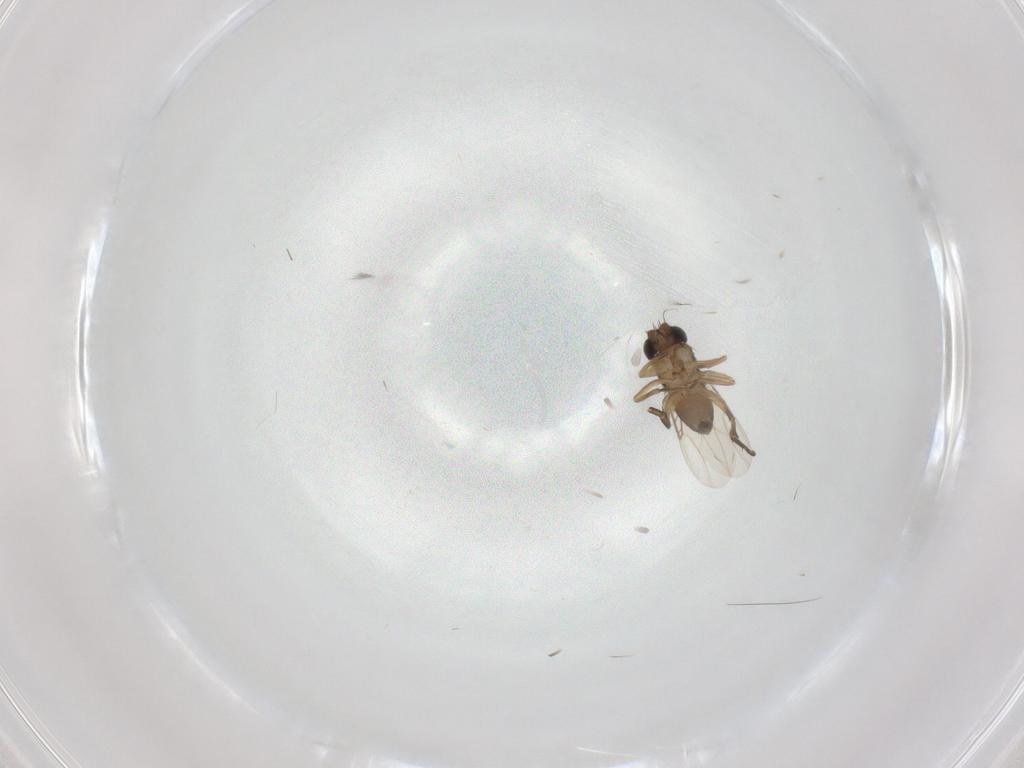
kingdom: Animalia
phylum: Arthropoda
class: Insecta
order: Diptera
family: Phoridae
